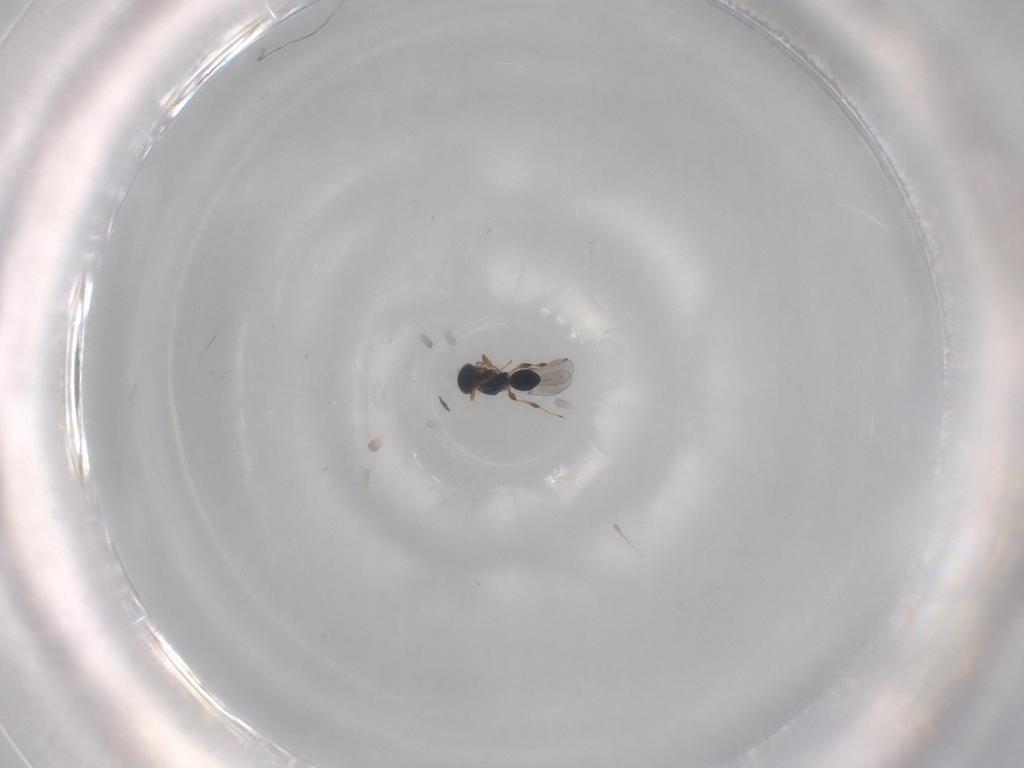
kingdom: Animalia
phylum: Arthropoda
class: Insecta
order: Hymenoptera
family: Platygastridae
